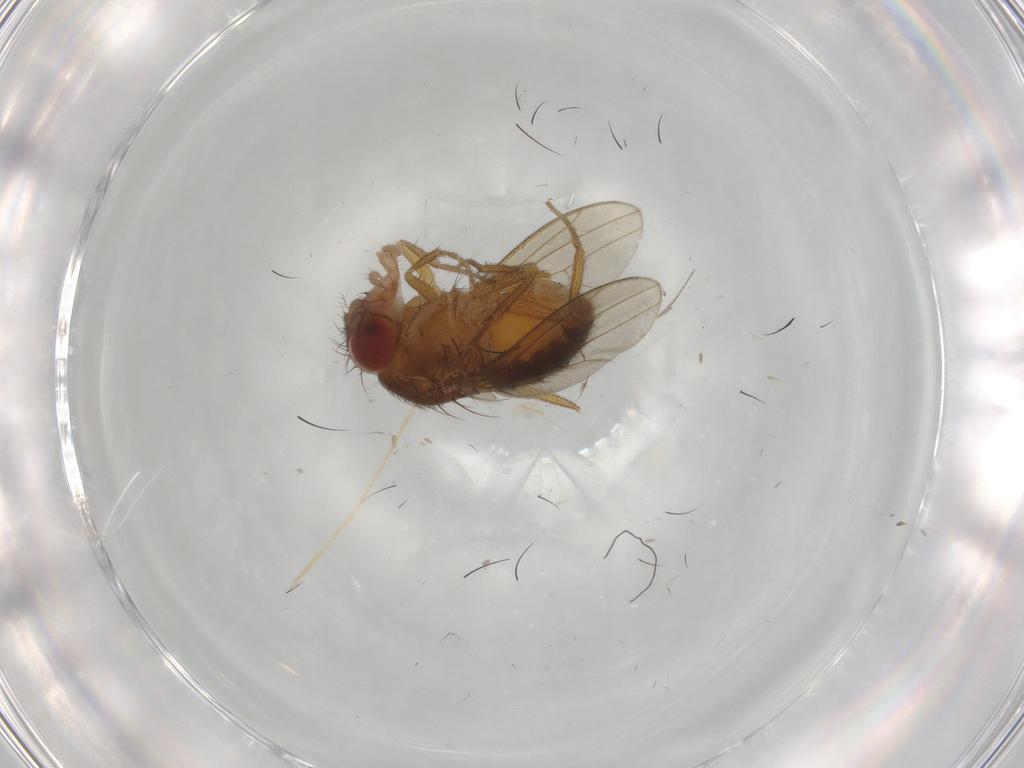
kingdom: Animalia
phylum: Arthropoda
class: Insecta
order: Diptera
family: Drosophilidae
